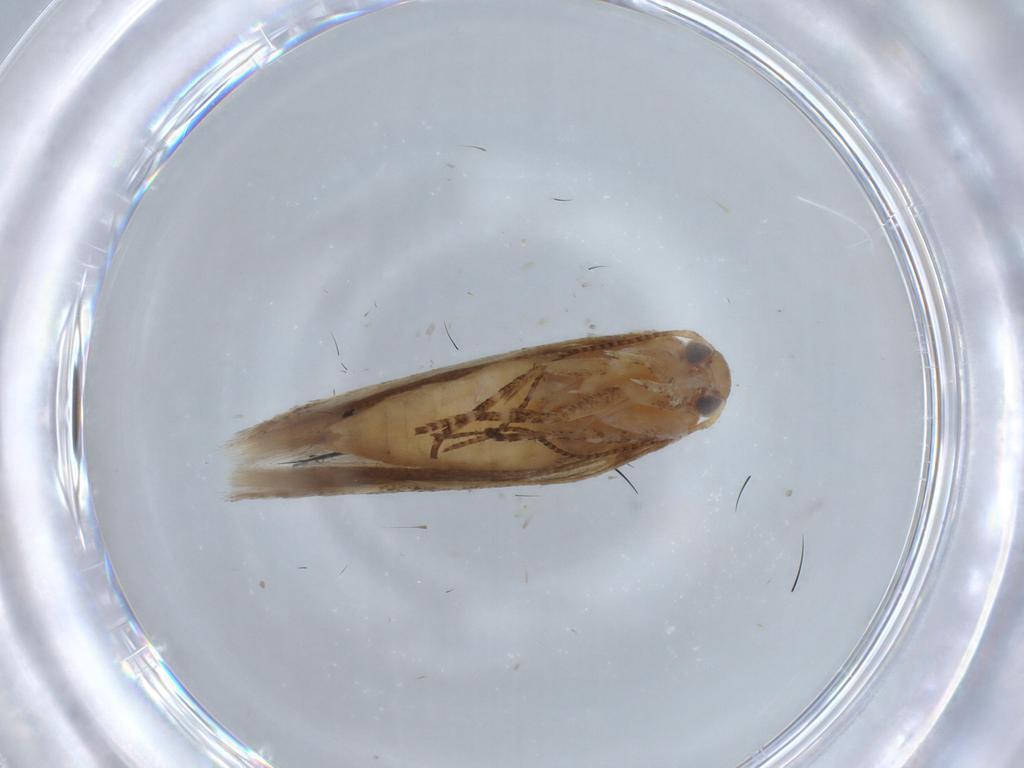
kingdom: Animalia
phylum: Arthropoda
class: Insecta
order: Lepidoptera
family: Gelechiidae
